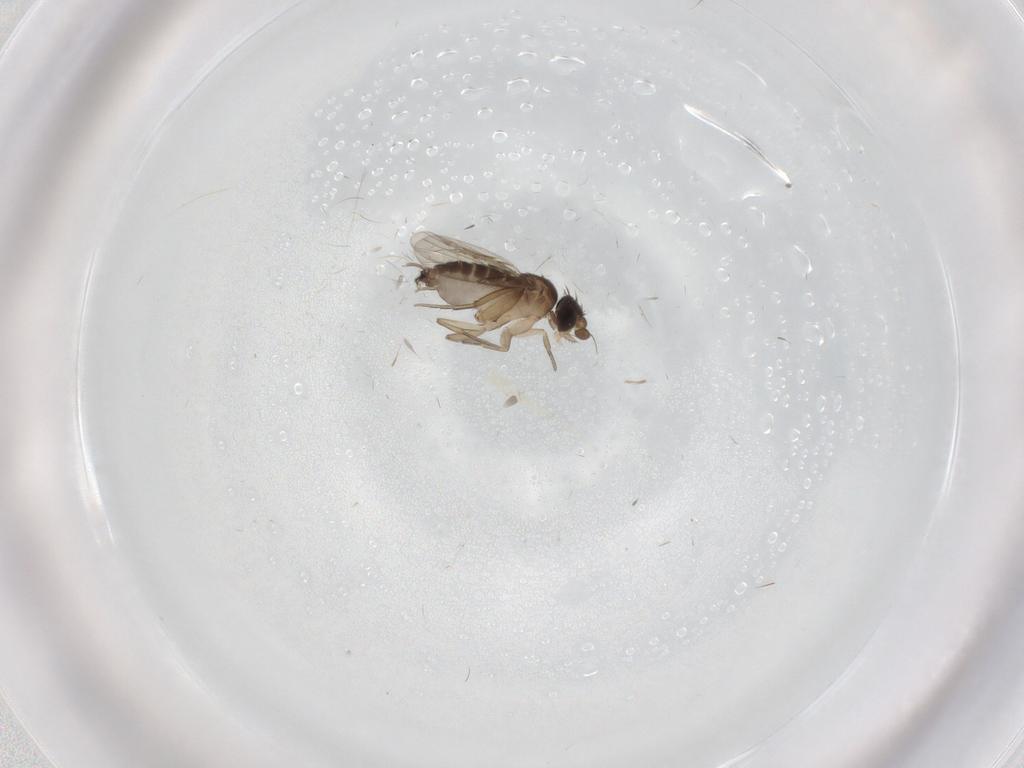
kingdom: Animalia
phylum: Arthropoda
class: Insecta
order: Diptera
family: Phoridae
